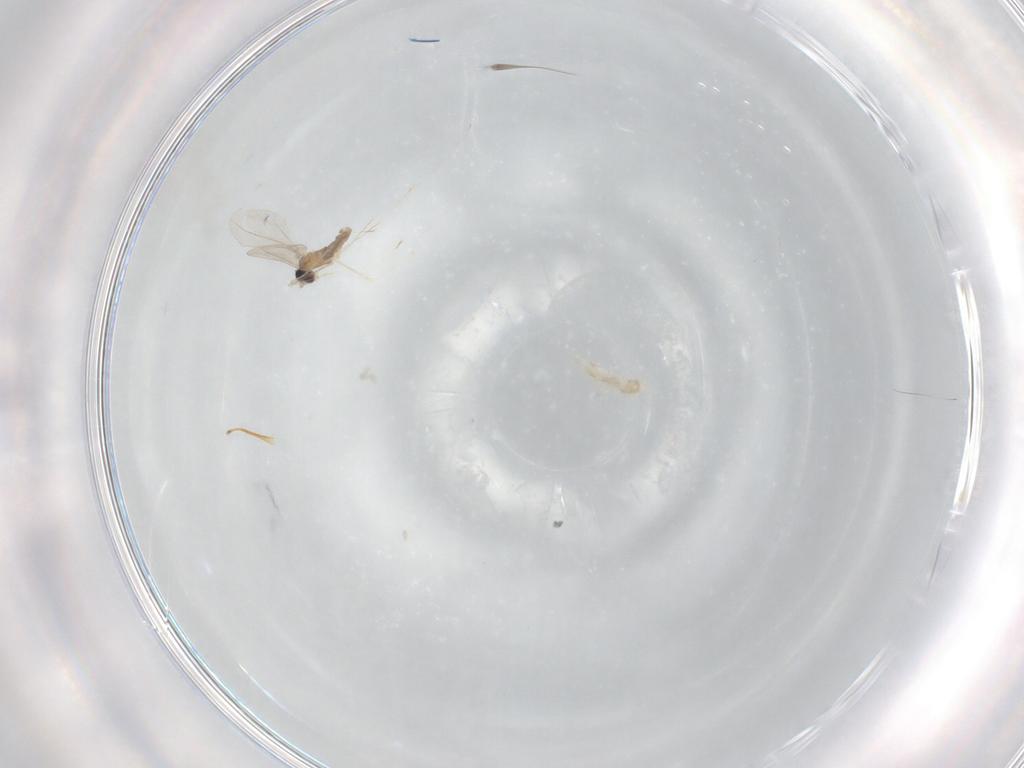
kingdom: Animalia
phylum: Arthropoda
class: Insecta
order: Diptera
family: Cecidomyiidae
